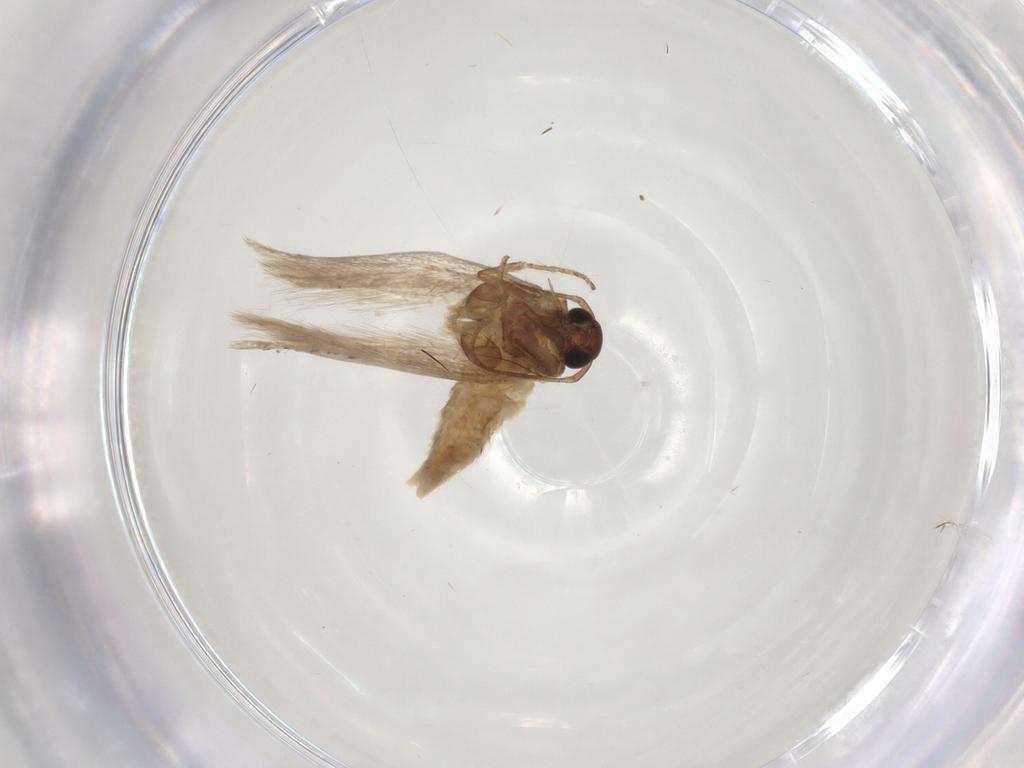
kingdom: Animalia
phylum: Arthropoda
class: Insecta
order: Lepidoptera
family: Gelechiidae
